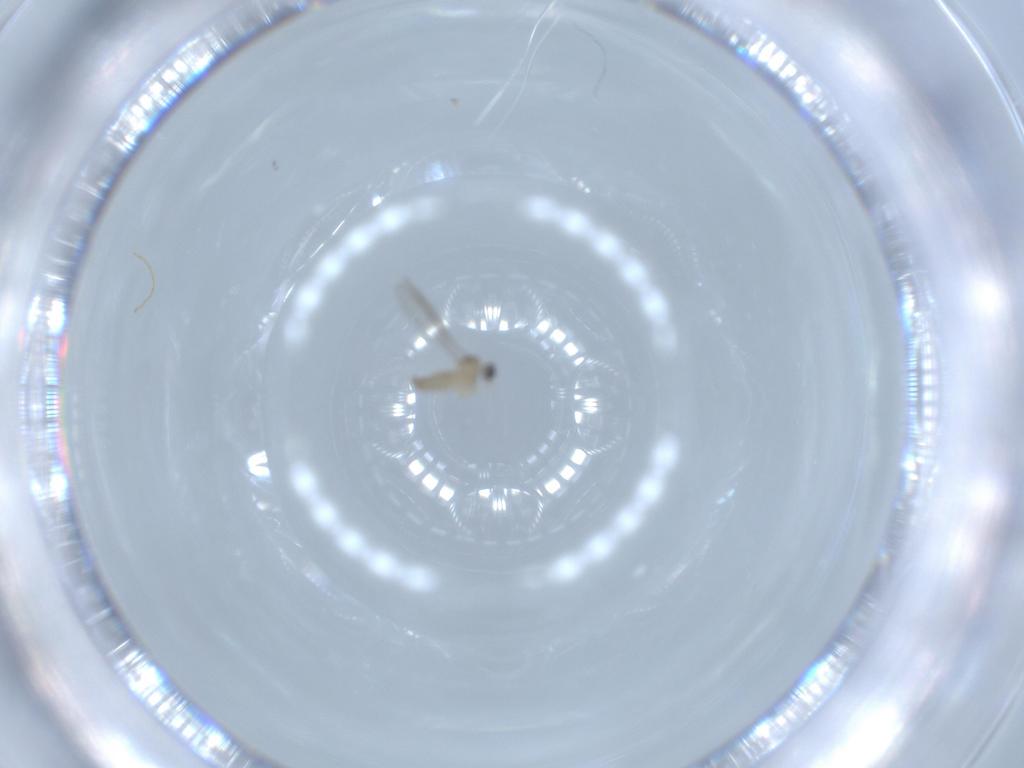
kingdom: Animalia
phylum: Arthropoda
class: Insecta
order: Diptera
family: Cecidomyiidae
